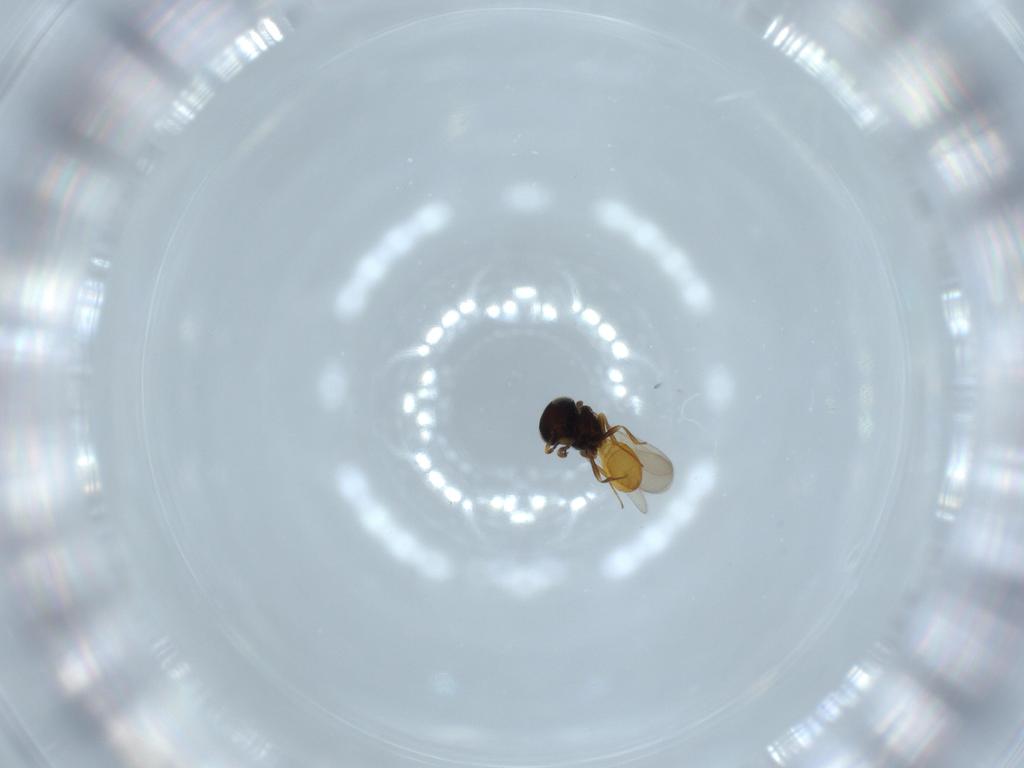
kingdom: Animalia
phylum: Arthropoda
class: Insecta
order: Hymenoptera
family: Scelionidae
